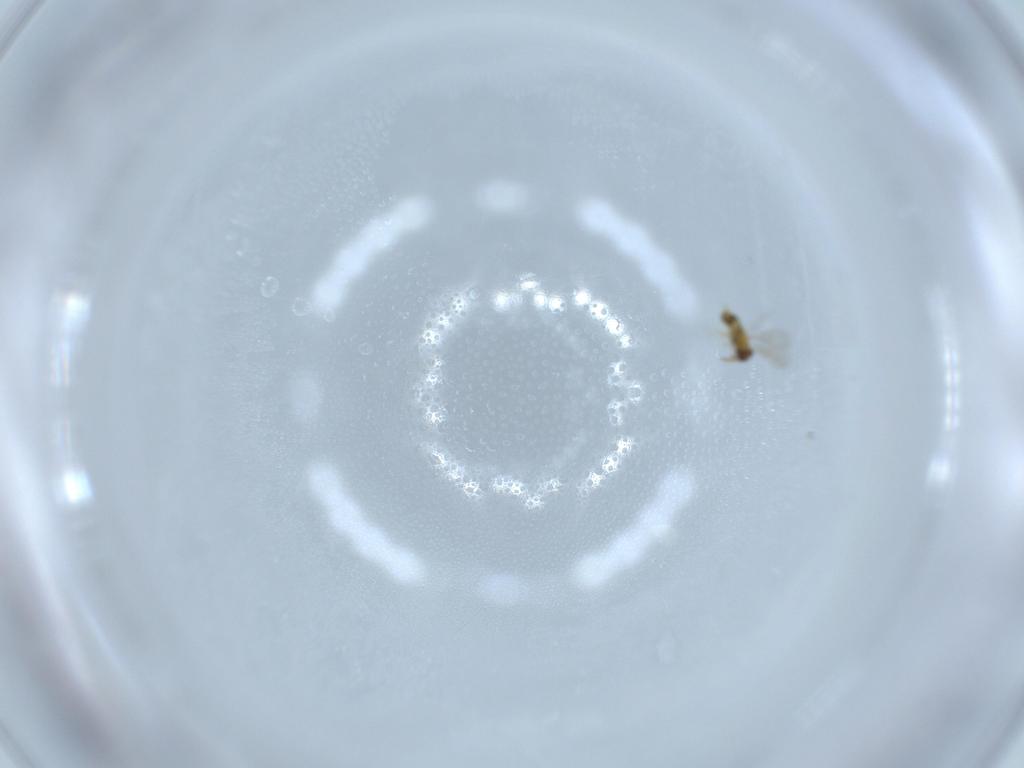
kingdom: Animalia
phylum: Arthropoda
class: Insecta
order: Hymenoptera
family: Aphelinidae
